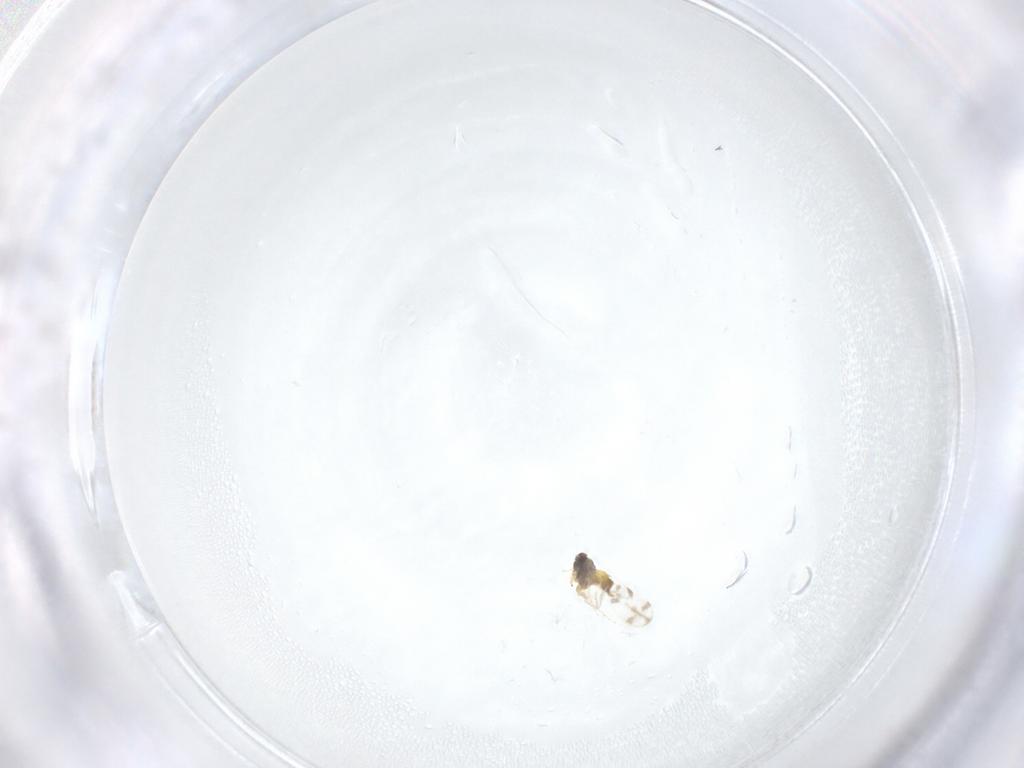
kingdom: Animalia
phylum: Arthropoda
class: Insecta
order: Hemiptera
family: Aleyrodidae
